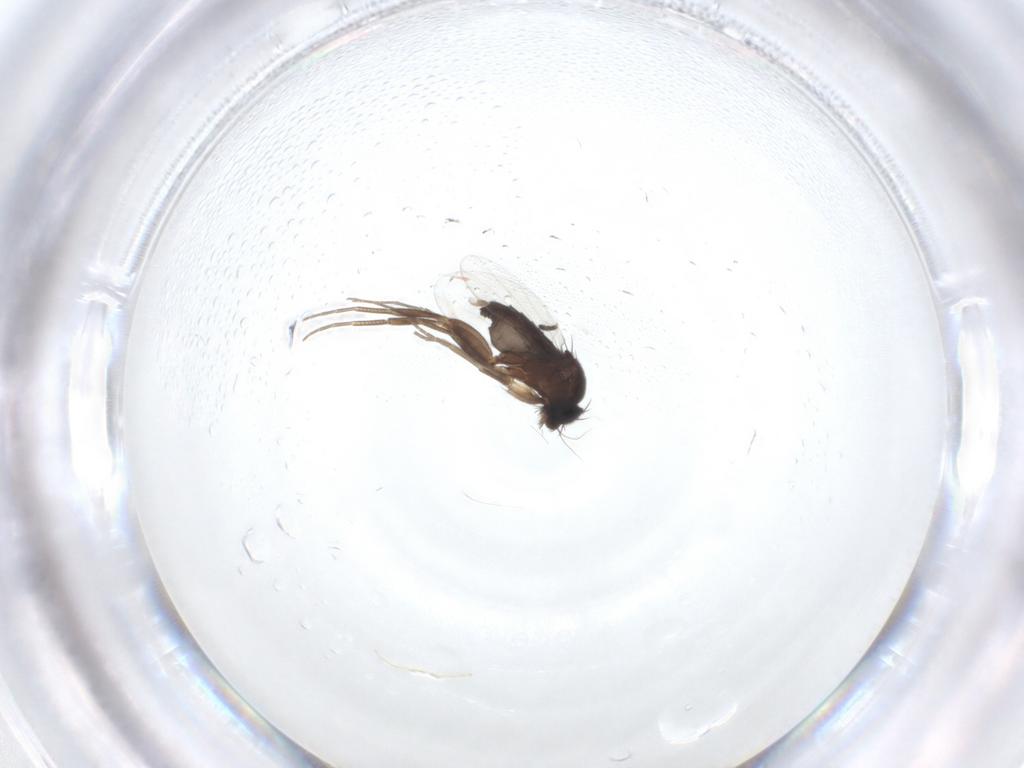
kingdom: Animalia
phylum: Arthropoda
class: Insecta
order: Diptera
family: Phoridae
